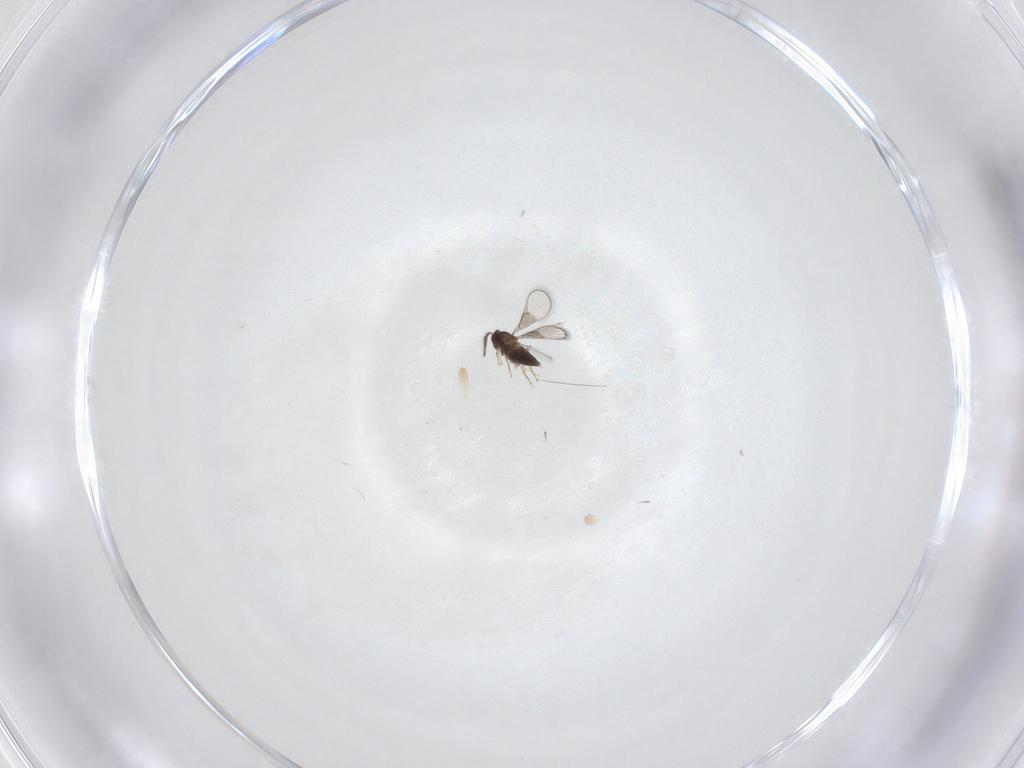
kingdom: Animalia
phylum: Arthropoda
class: Insecta
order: Hymenoptera
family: Trichogrammatidae
